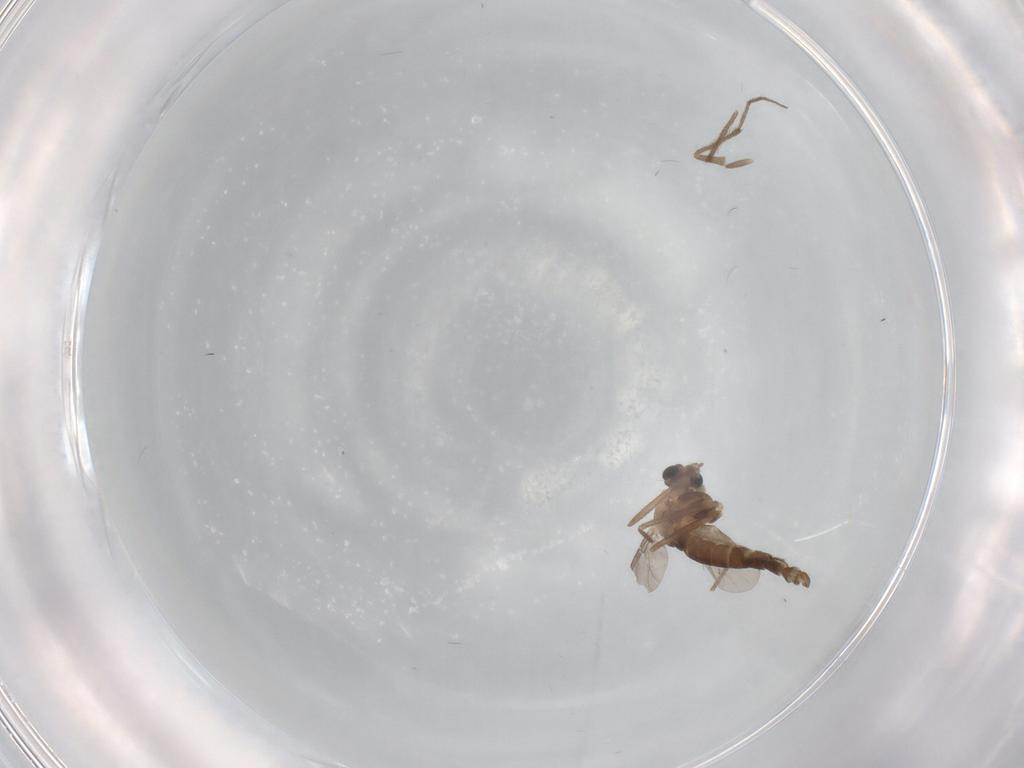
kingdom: Animalia
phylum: Arthropoda
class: Insecta
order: Diptera
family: Chironomidae
